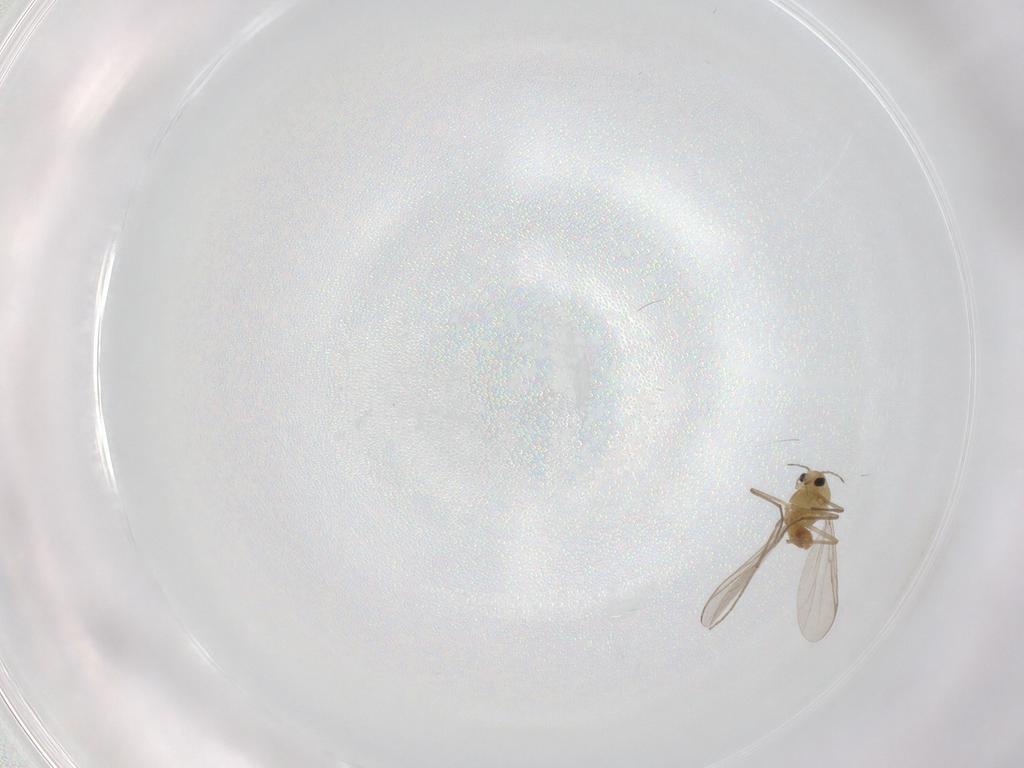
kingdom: Animalia
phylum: Arthropoda
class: Insecta
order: Diptera
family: Chironomidae
